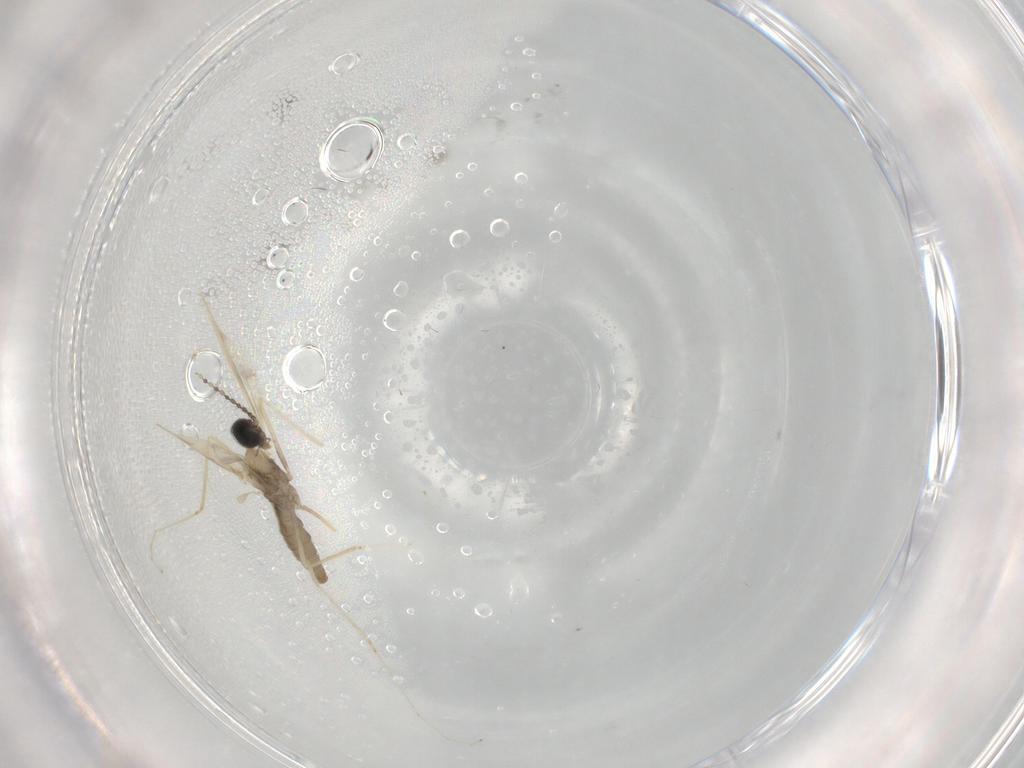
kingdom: Animalia
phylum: Arthropoda
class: Insecta
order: Diptera
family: Cecidomyiidae
